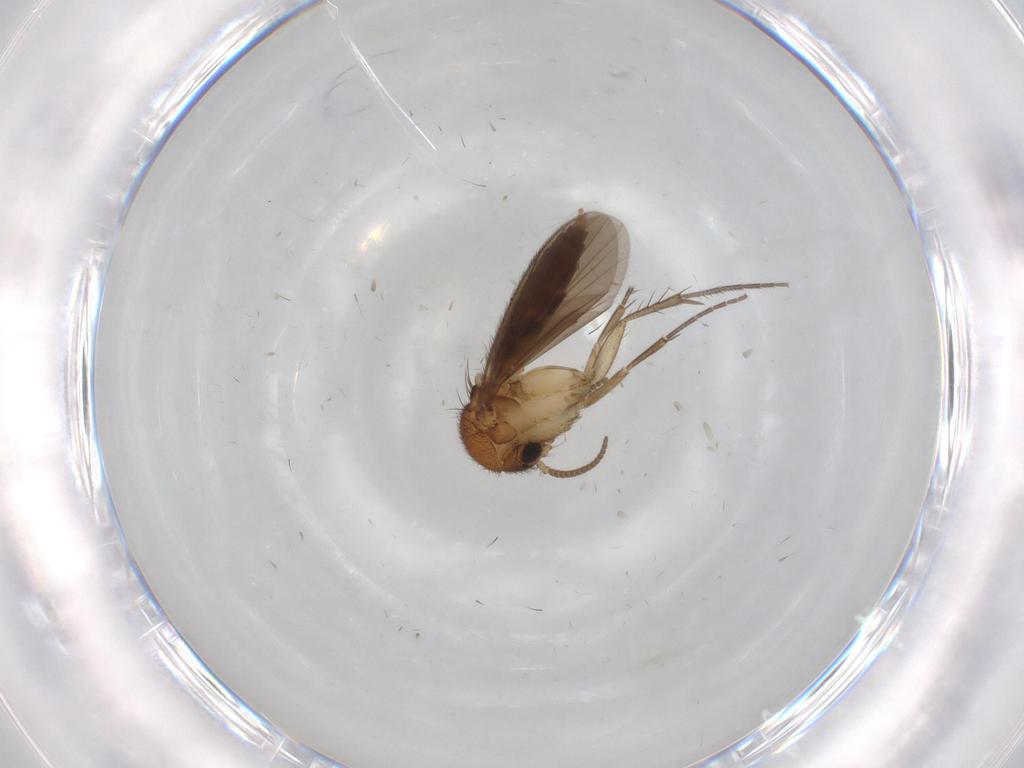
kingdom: Animalia
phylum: Arthropoda
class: Insecta
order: Diptera
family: Mycetophilidae
